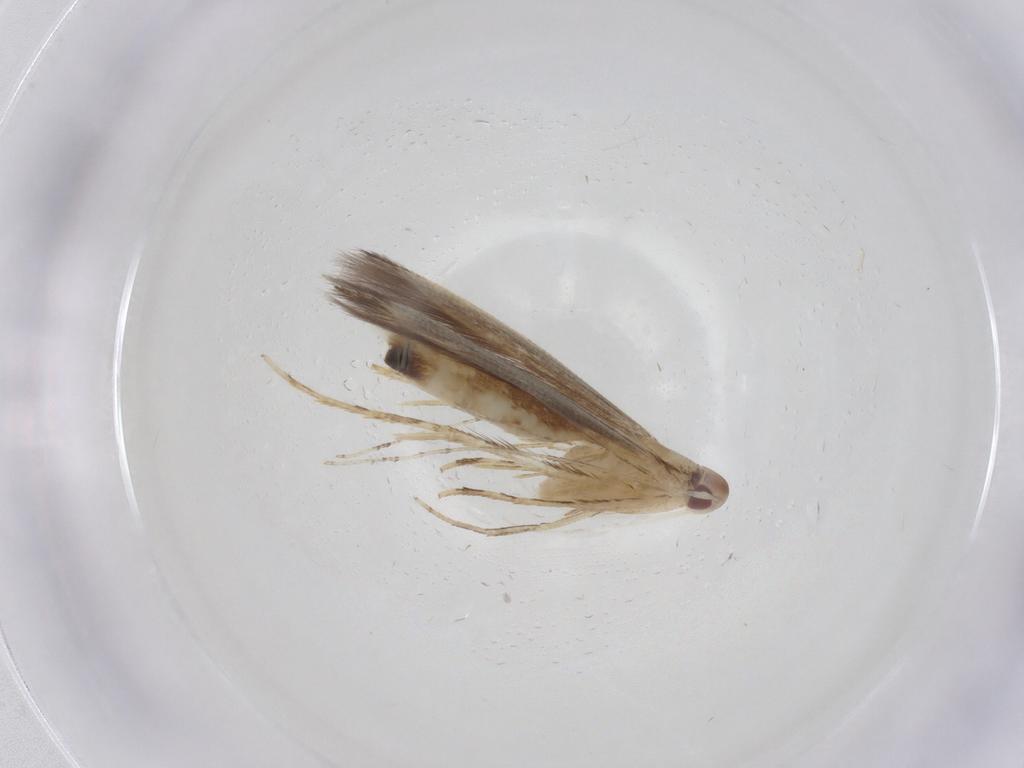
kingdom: Animalia
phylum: Arthropoda
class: Insecta
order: Lepidoptera
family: Cosmopterigidae
